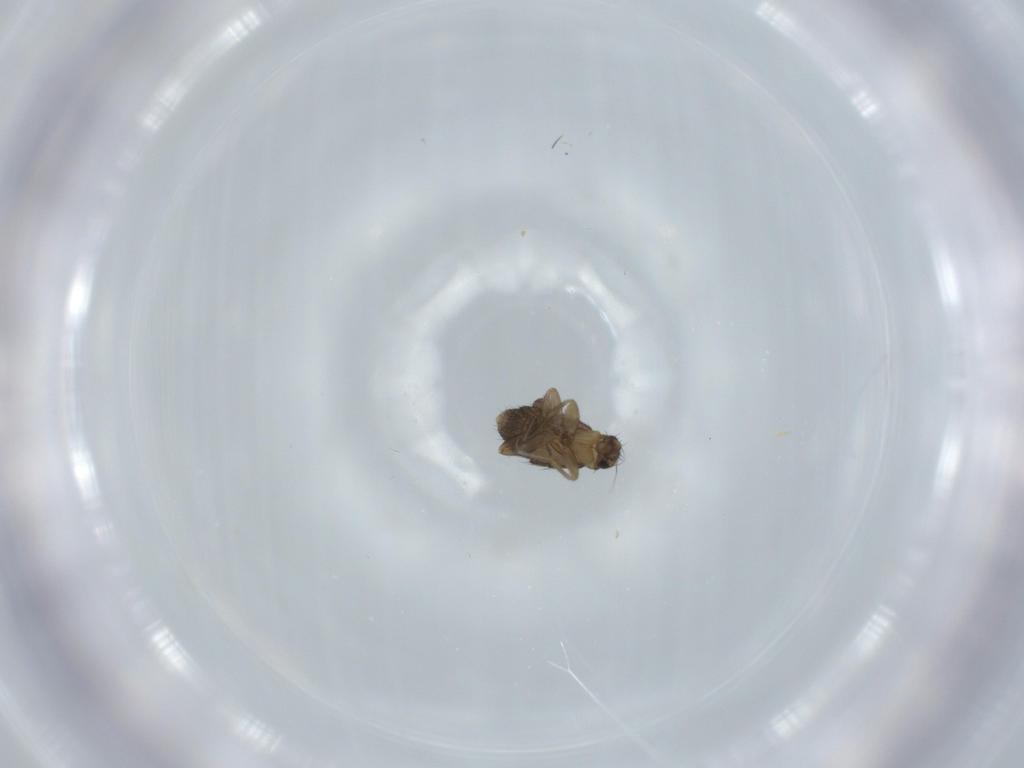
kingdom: Animalia
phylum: Arthropoda
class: Insecta
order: Diptera
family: Phoridae
